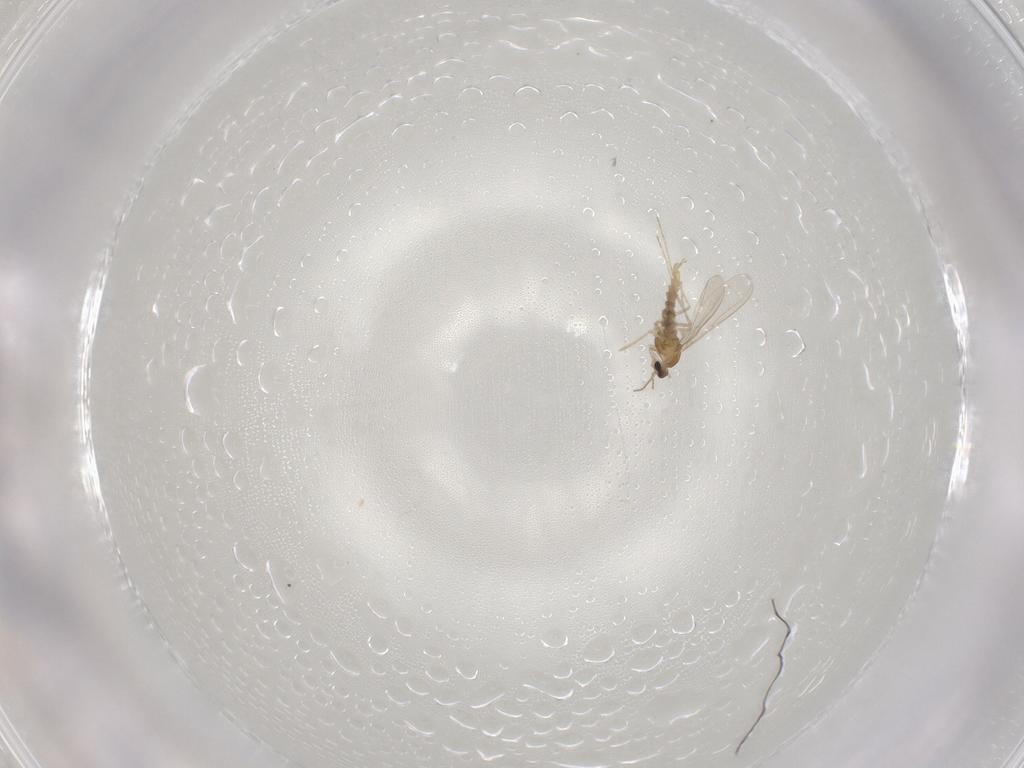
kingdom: Animalia
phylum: Arthropoda
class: Insecta
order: Diptera
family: Cecidomyiidae
